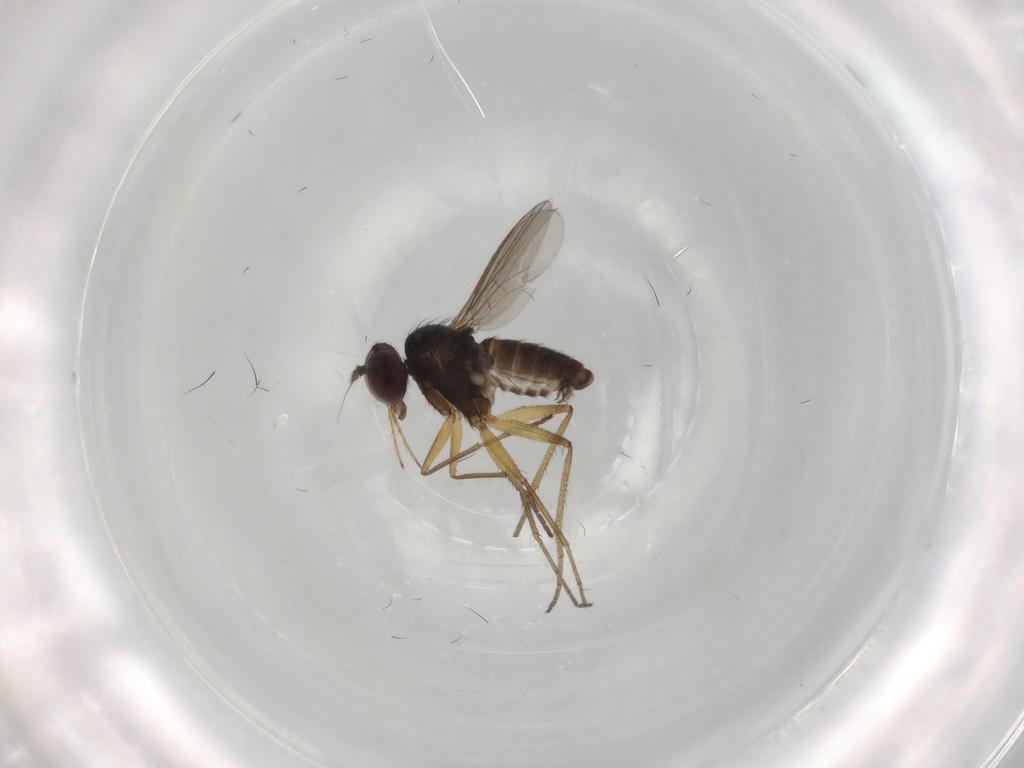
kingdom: Animalia
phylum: Arthropoda
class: Insecta
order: Diptera
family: Dolichopodidae
